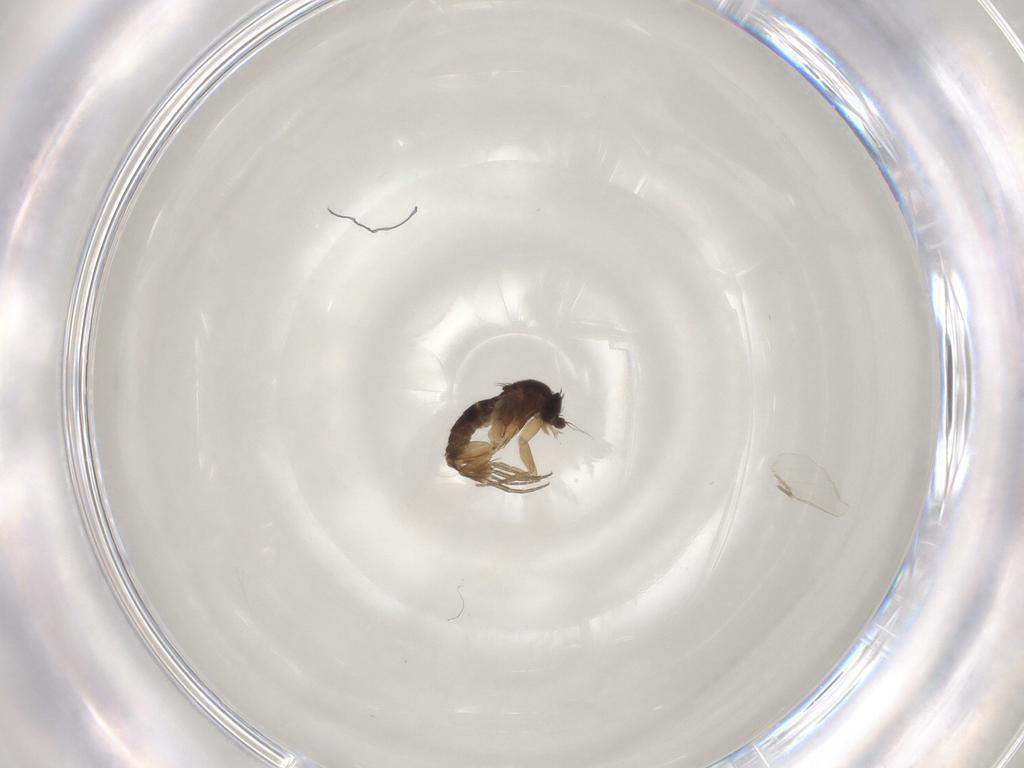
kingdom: Animalia
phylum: Arthropoda
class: Insecta
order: Diptera
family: Phoridae
